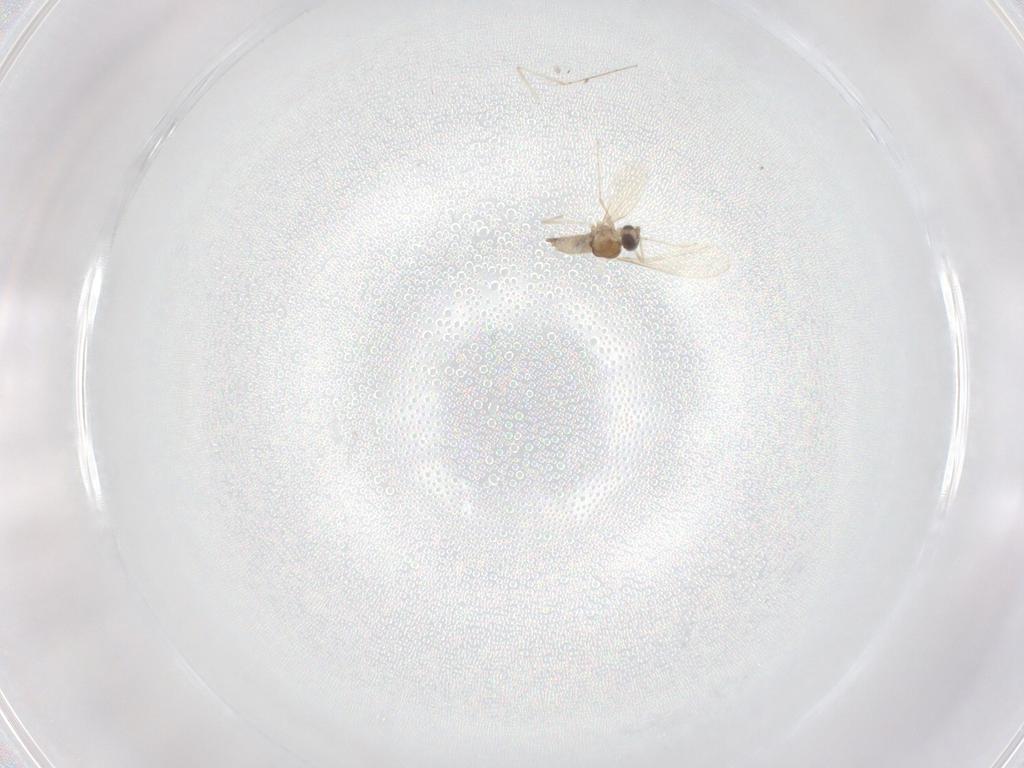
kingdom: Animalia
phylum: Arthropoda
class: Insecta
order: Diptera
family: Cecidomyiidae
